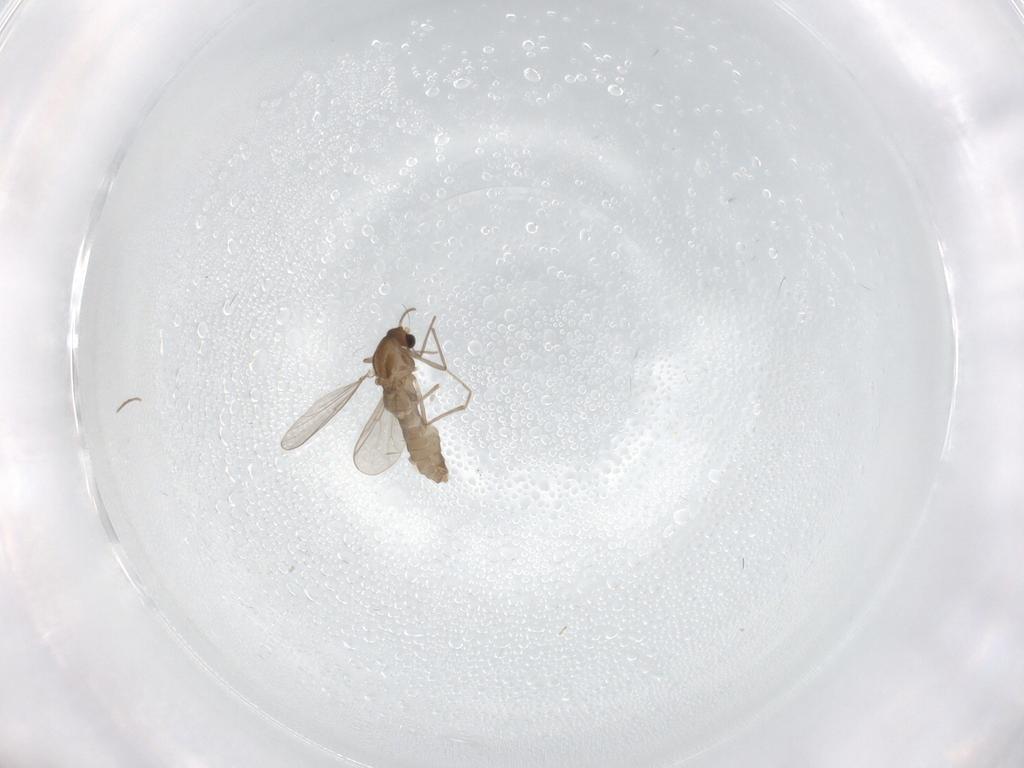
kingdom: Animalia
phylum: Arthropoda
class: Insecta
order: Diptera
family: Chironomidae
